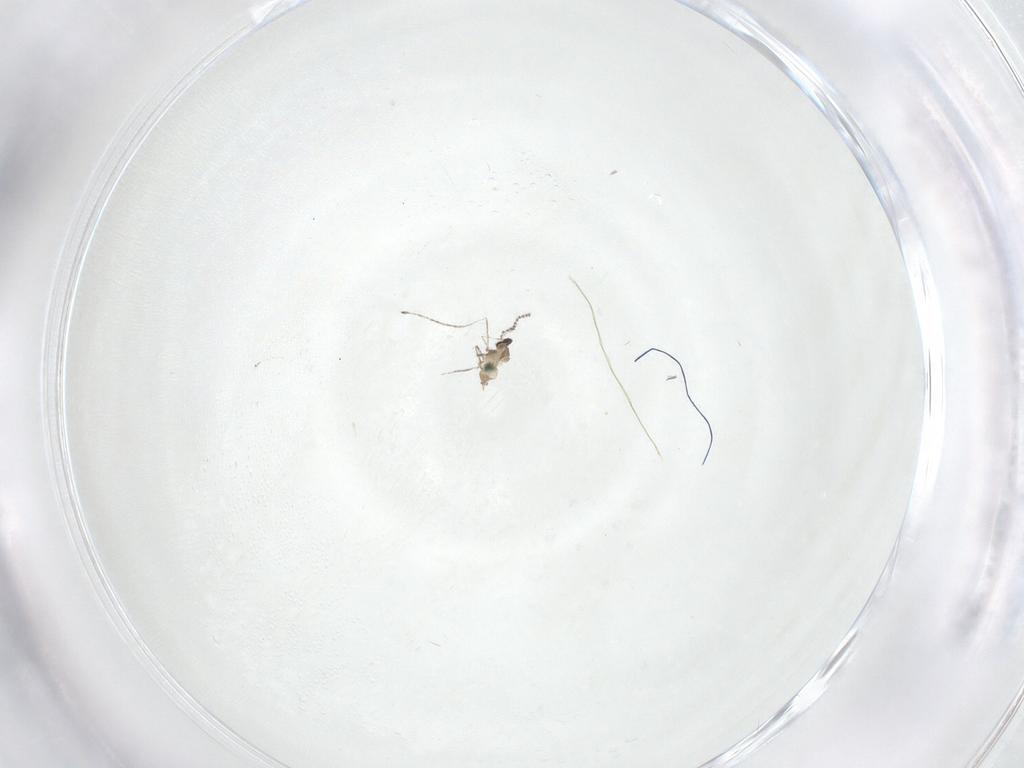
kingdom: Animalia
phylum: Arthropoda
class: Insecta
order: Diptera
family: Cecidomyiidae
